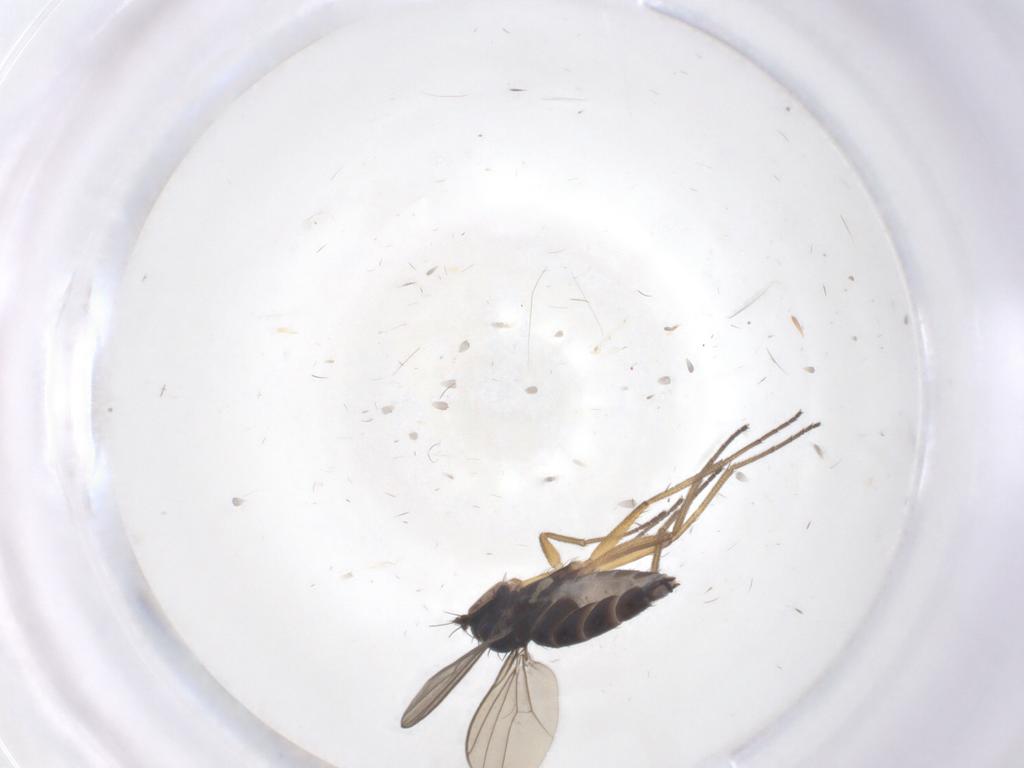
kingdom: Animalia
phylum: Arthropoda
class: Insecta
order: Diptera
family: Dolichopodidae
